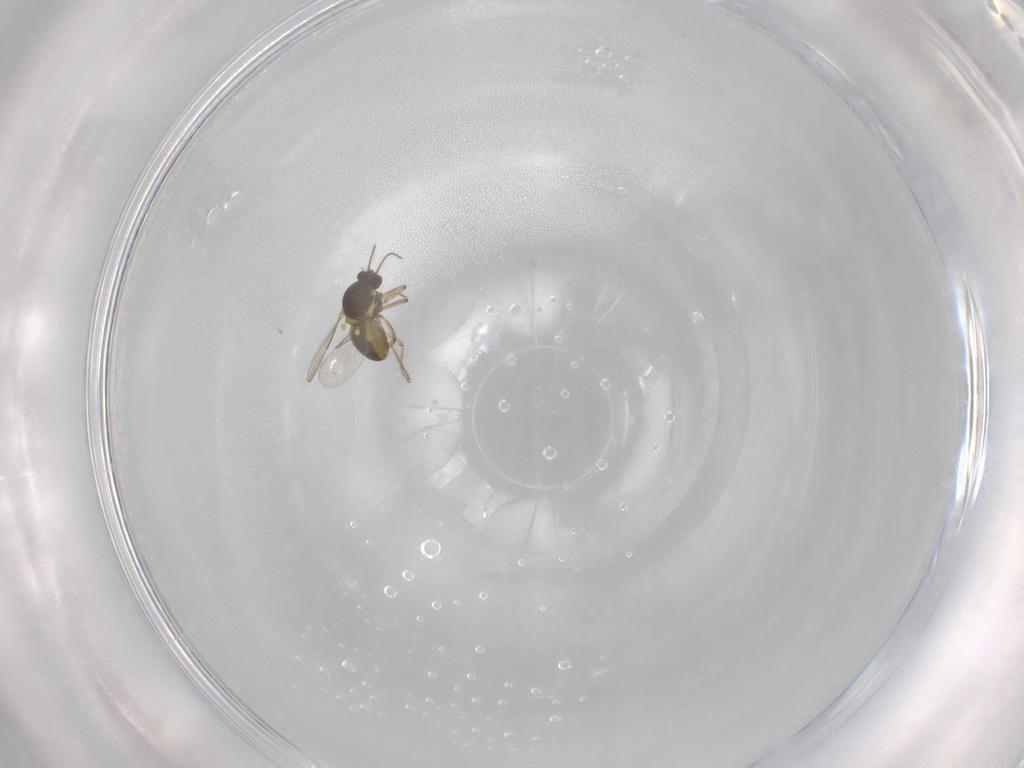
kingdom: Animalia
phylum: Arthropoda
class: Insecta
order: Diptera
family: Ceratopogonidae
